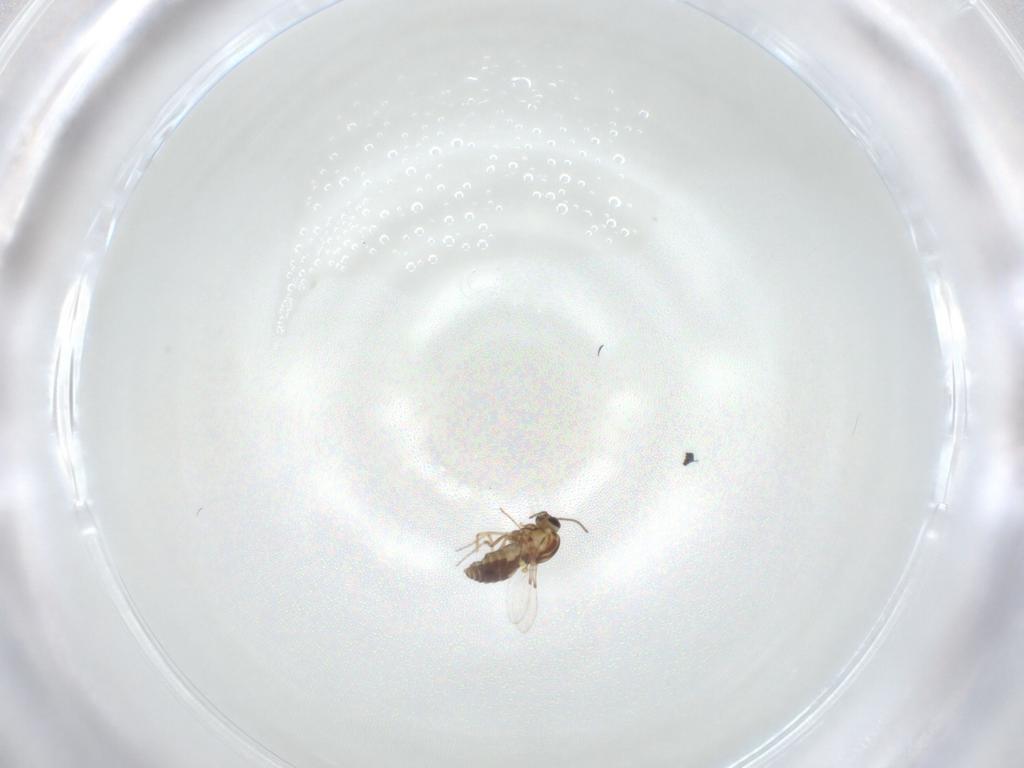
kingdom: Animalia
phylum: Arthropoda
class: Insecta
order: Diptera
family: Ceratopogonidae
